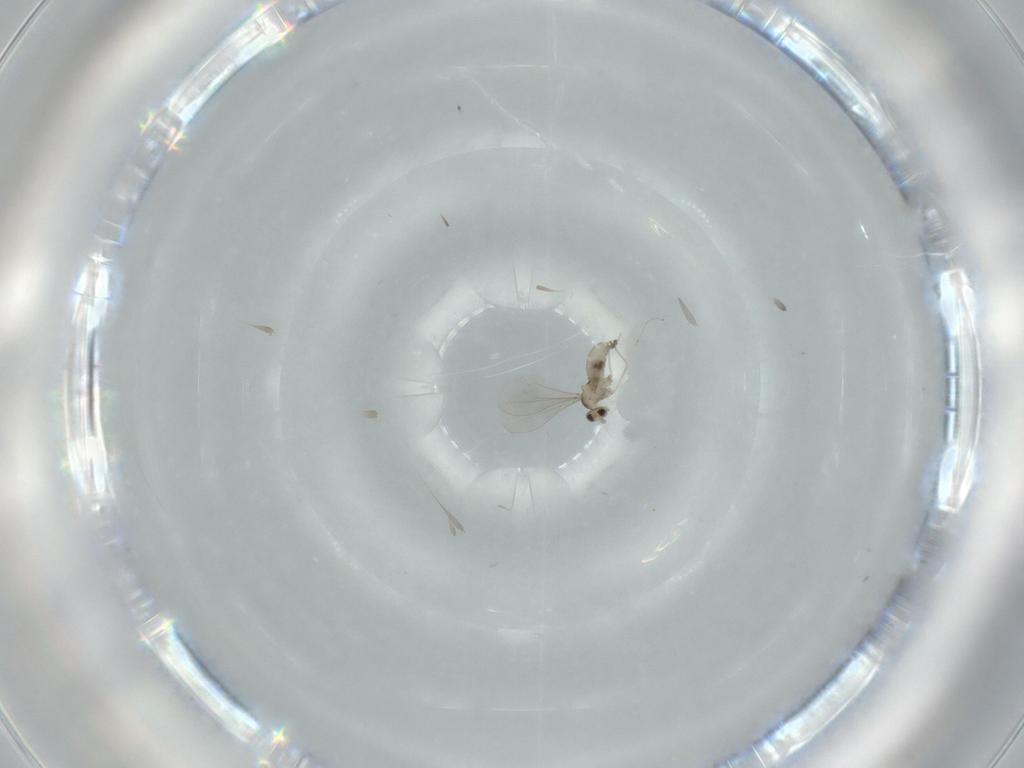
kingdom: Animalia
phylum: Arthropoda
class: Insecta
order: Diptera
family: Cecidomyiidae
